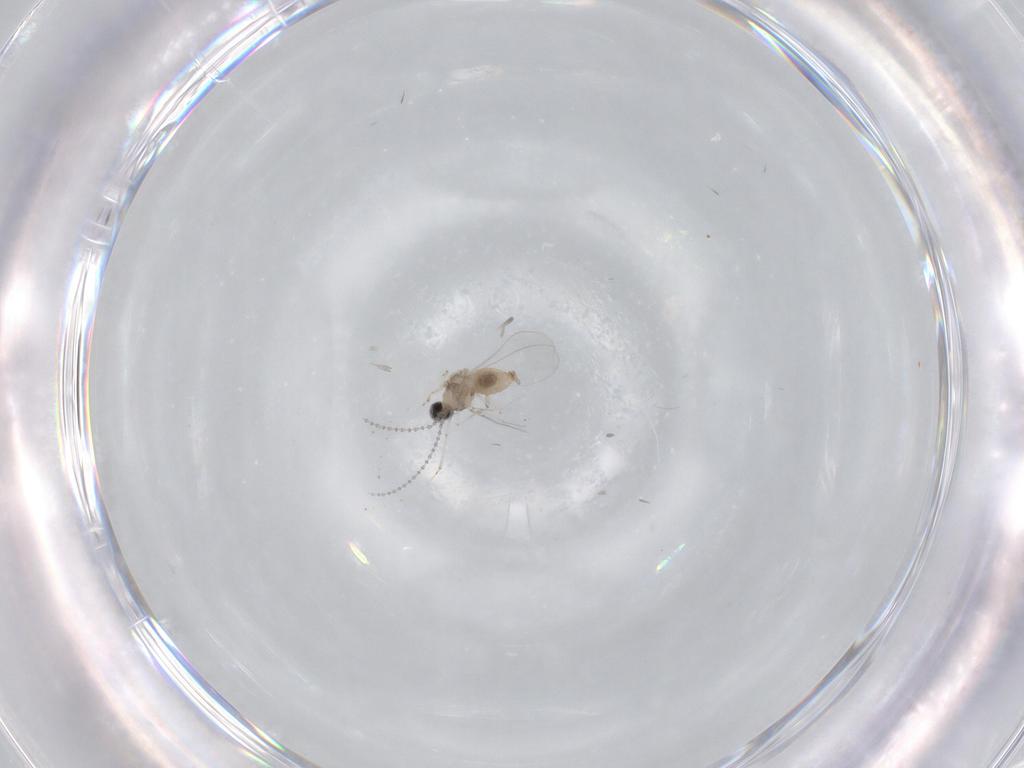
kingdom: Animalia
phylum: Arthropoda
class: Insecta
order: Diptera
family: Cecidomyiidae
